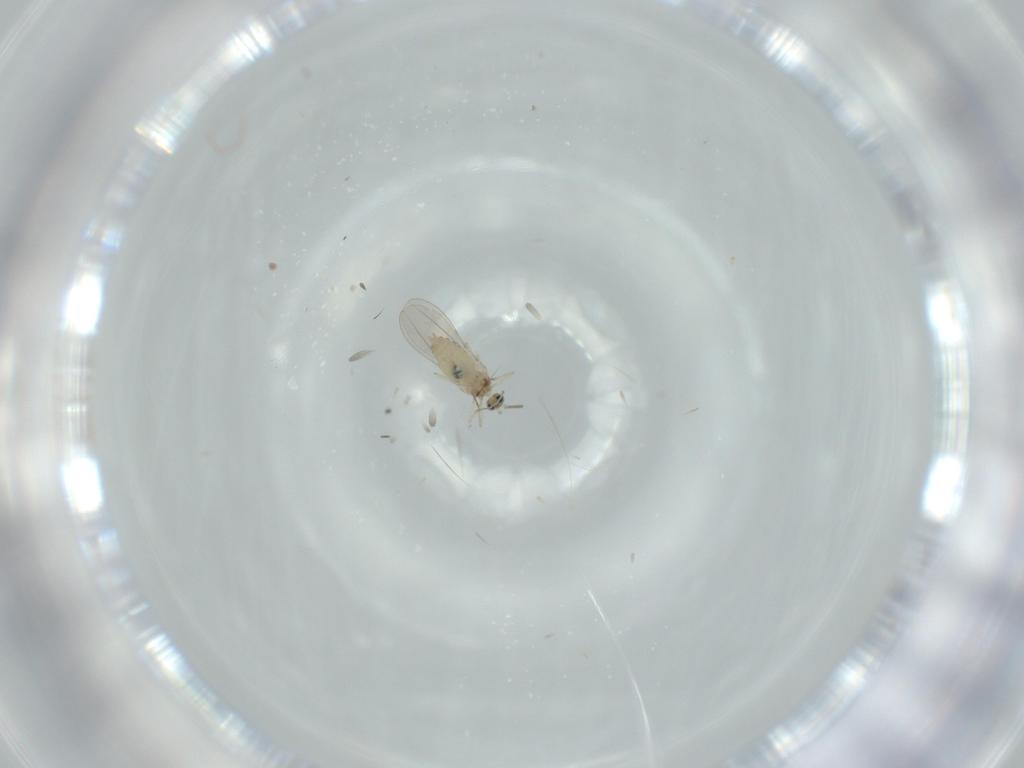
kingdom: Animalia
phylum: Arthropoda
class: Insecta
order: Diptera
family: Ceratopogonidae
